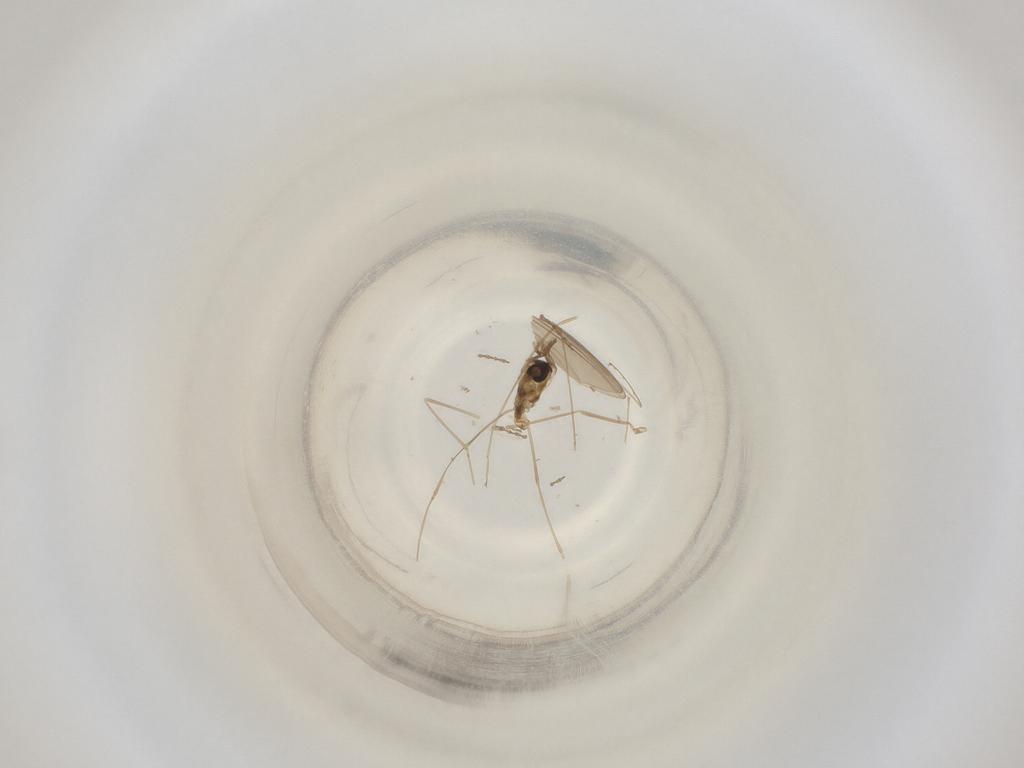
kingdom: Animalia
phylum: Arthropoda
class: Insecta
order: Diptera
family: Cecidomyiidae
